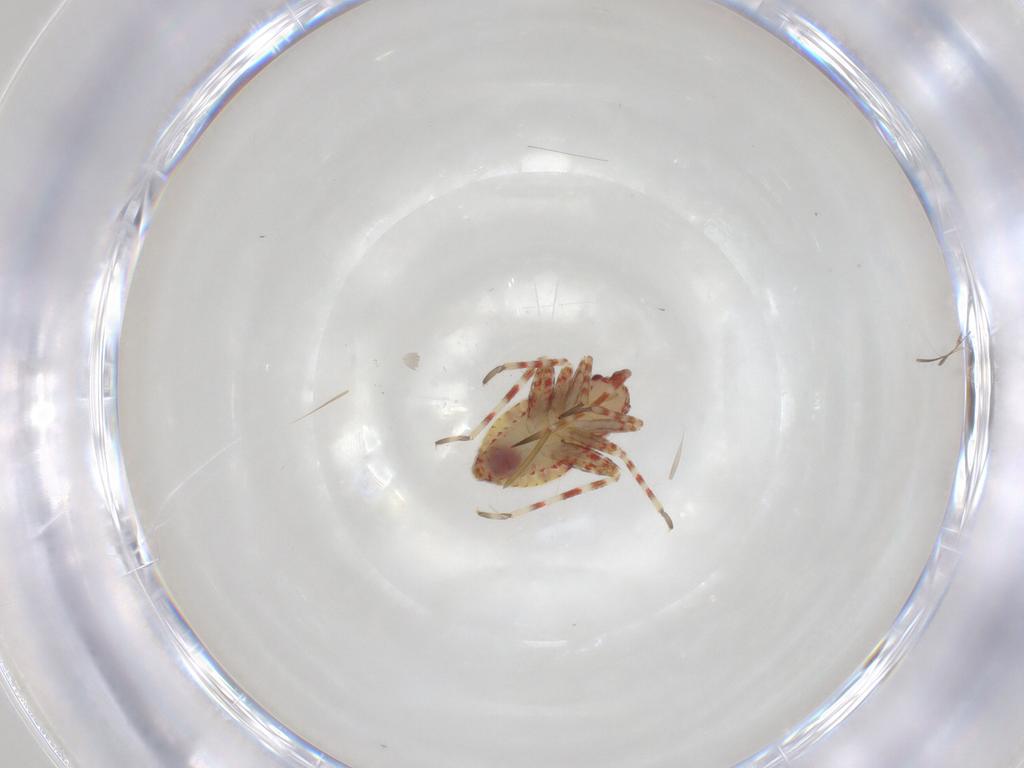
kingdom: Animalia
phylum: Arthropoda
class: Insecta
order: Hemiptera
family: Miridae
